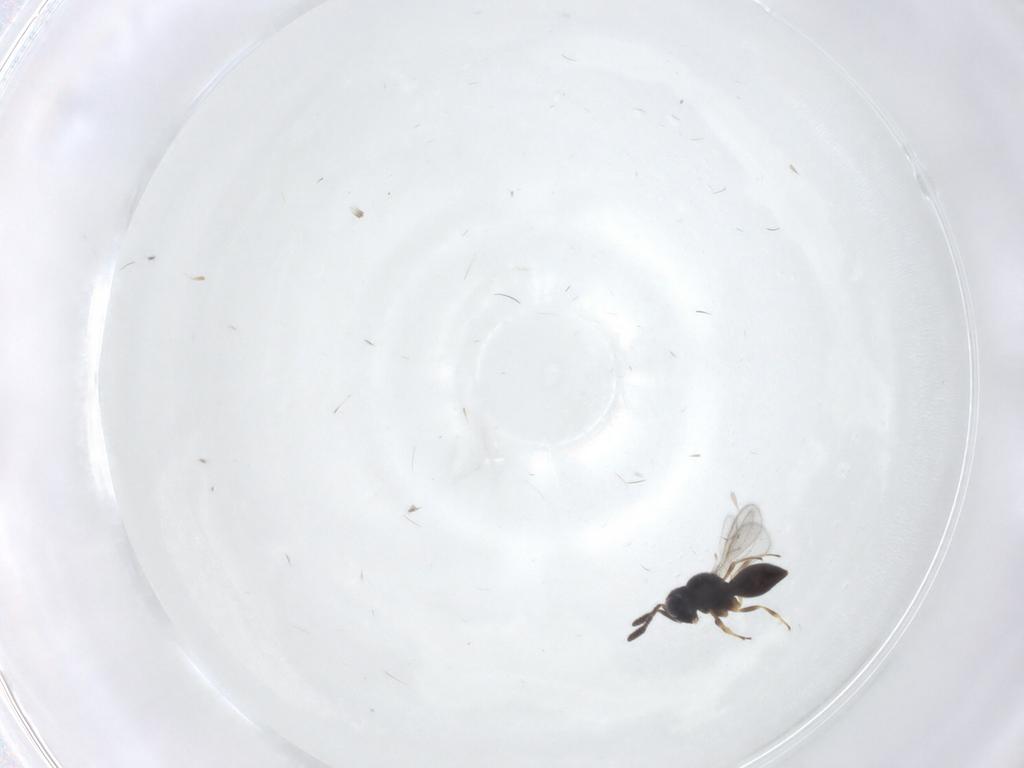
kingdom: Animalia
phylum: Arthropoda
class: Insecta
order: Hymenoptera
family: Scelionidae
